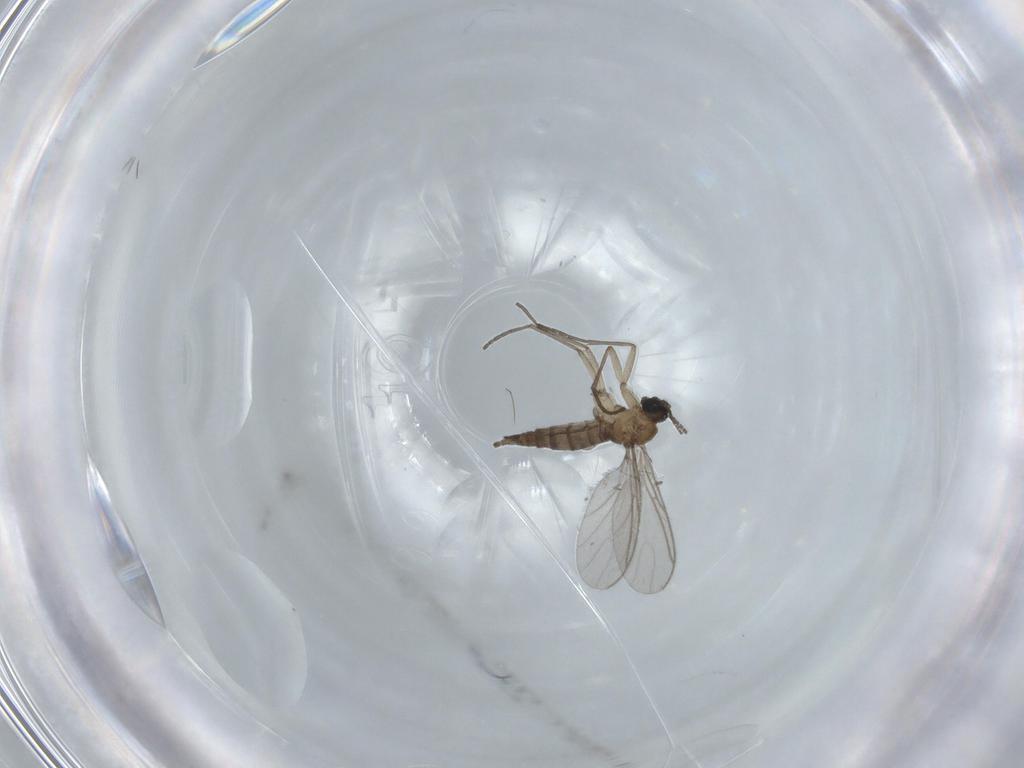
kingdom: Animalia
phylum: Arthropoda
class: Insecta
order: Diptera
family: Sciaridae
